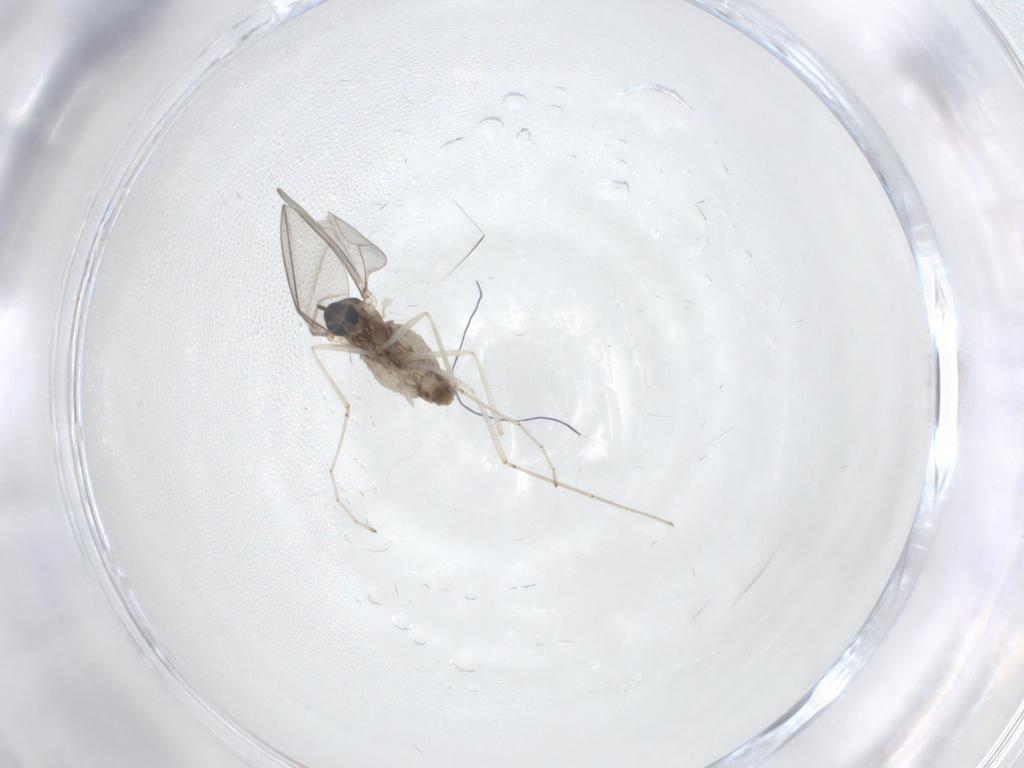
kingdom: Animalia
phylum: Arthropoda
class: Insecta
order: Diptera
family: Cecidomyiidae
